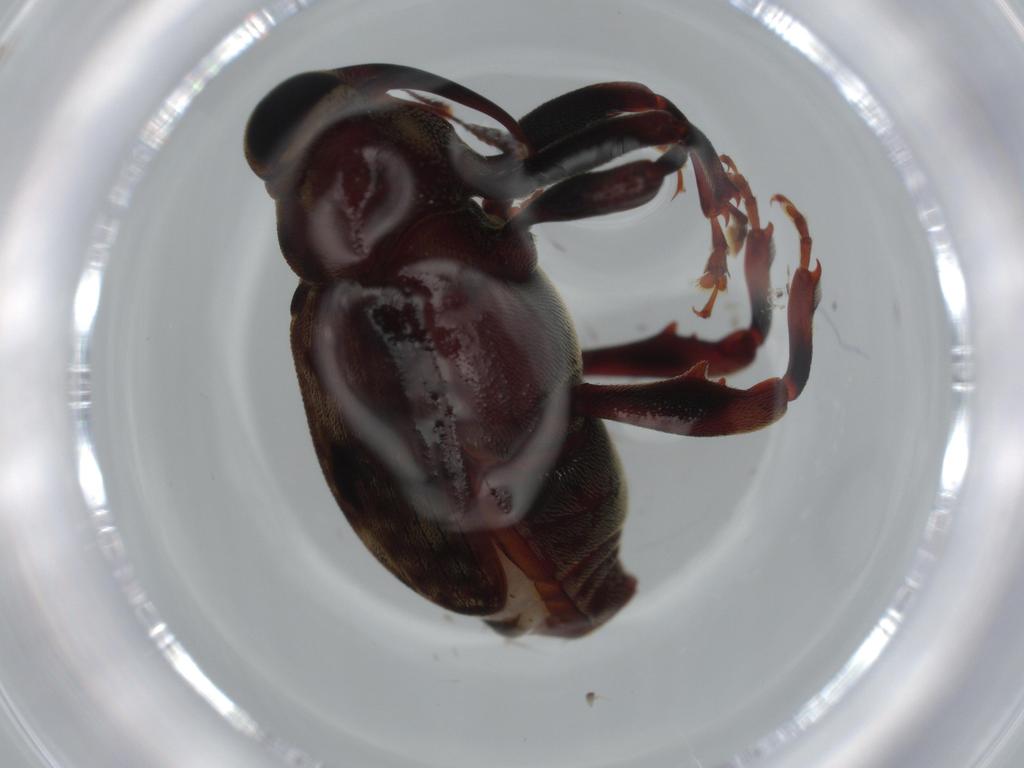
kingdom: Animalia
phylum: Arthropoda
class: Insecta
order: Coleoptera
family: Curculionidae
